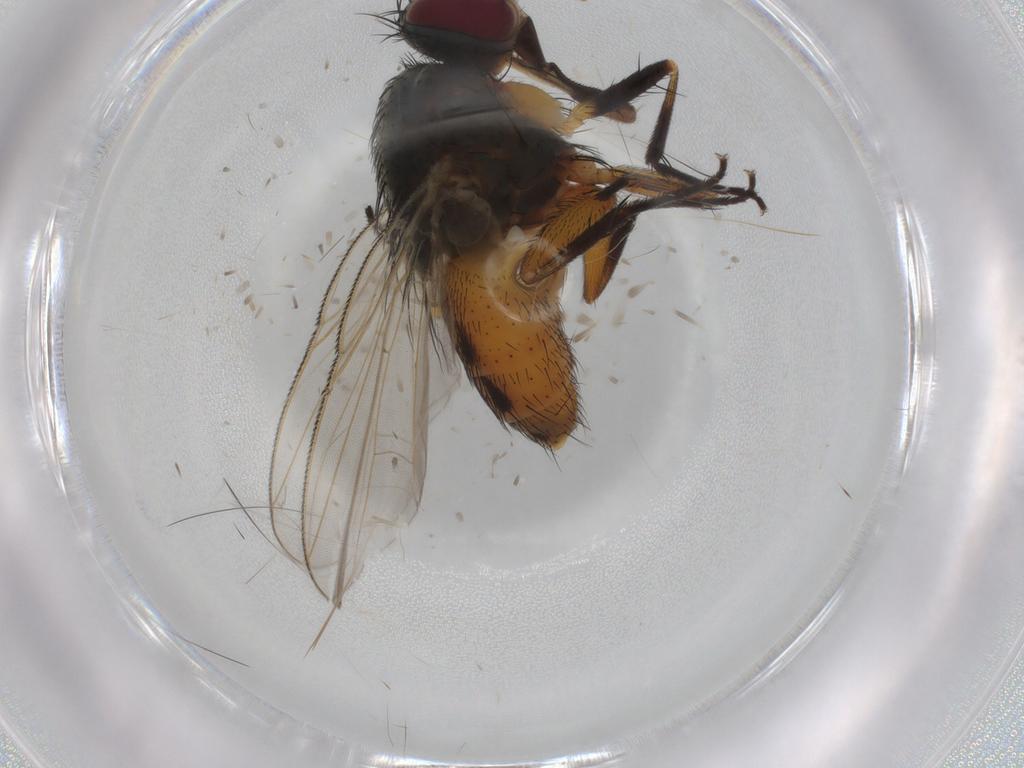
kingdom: Animalia
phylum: Arthropoda
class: Insecta
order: Diptera
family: Muscidae
